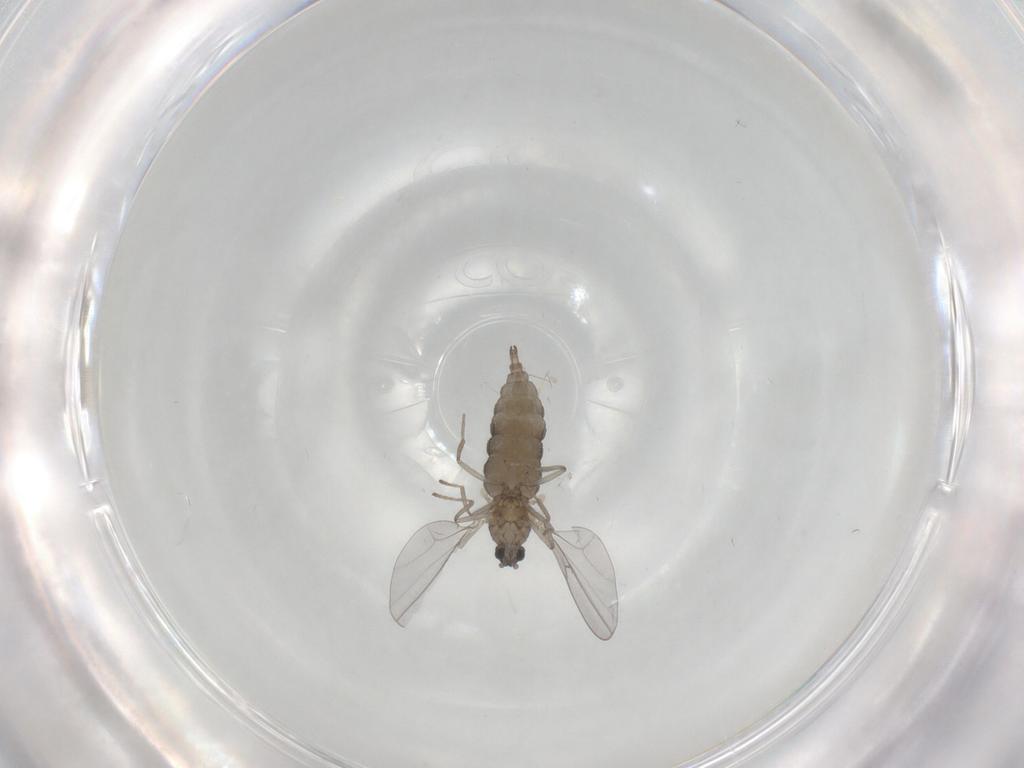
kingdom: Animalia
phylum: Arthropoda
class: Insecta
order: Diptera
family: Cecidomyiidae
